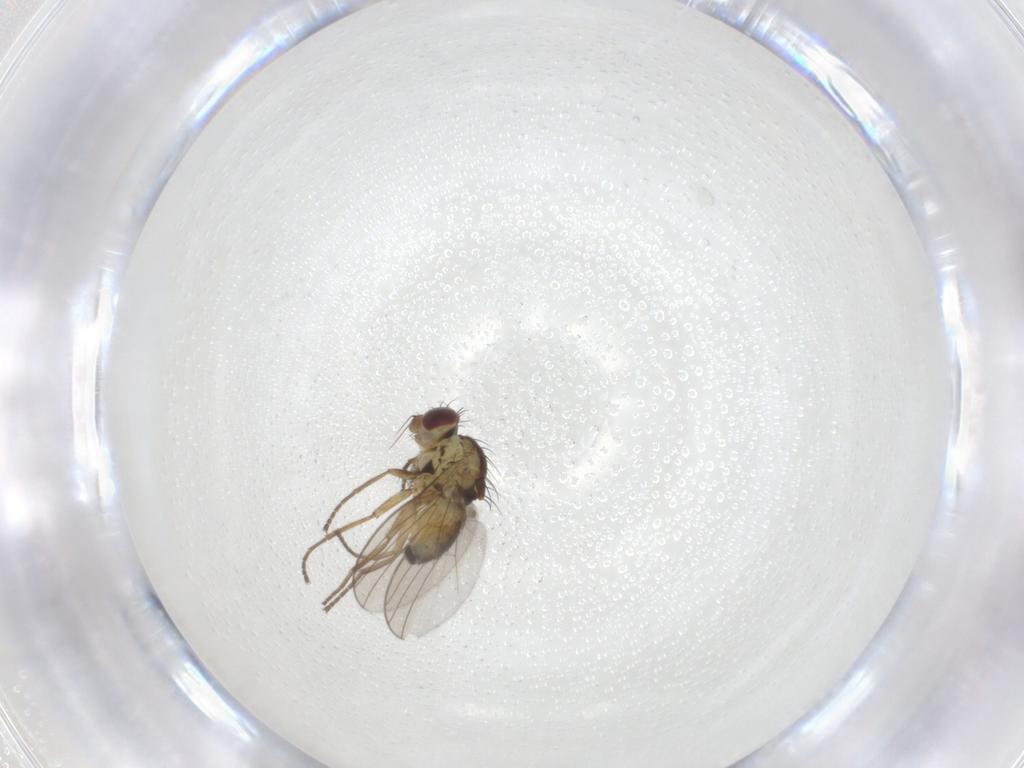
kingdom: Animalia
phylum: Arthropoda
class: Insecta
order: Diptera
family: Agromyzidae
